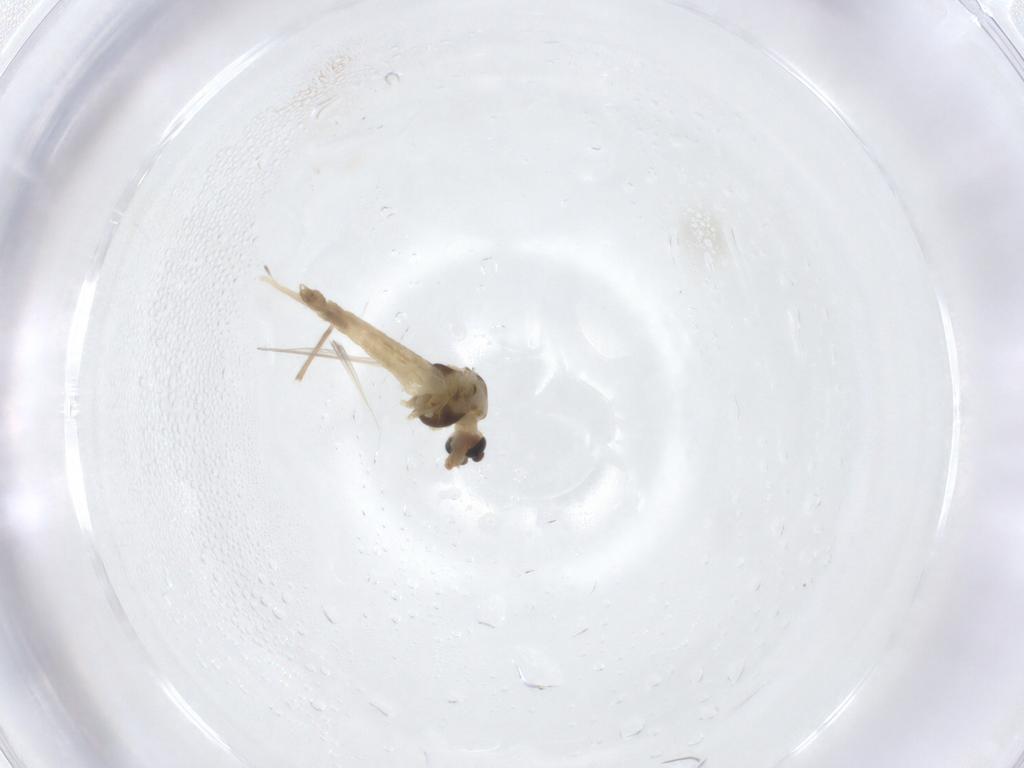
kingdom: Animalia
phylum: Arthropoda
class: Insecta
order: Diptera
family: Chironomidae
